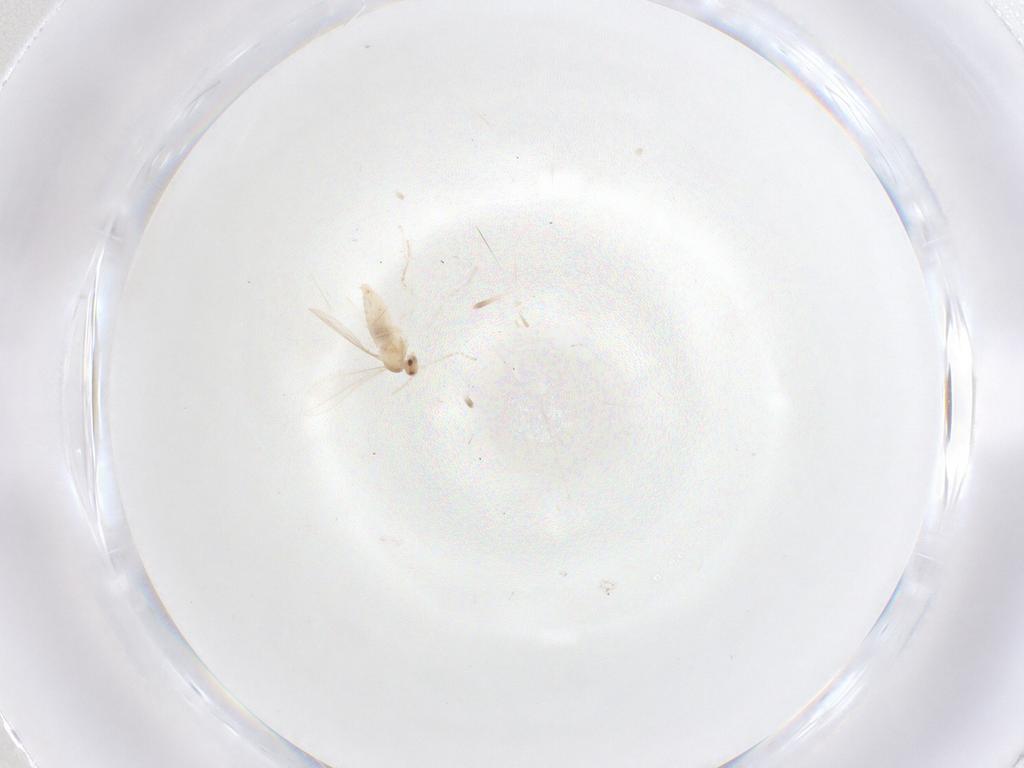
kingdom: Animalia
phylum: Arthropoda
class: Insecta
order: Diptera
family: Cecidomyiidae
